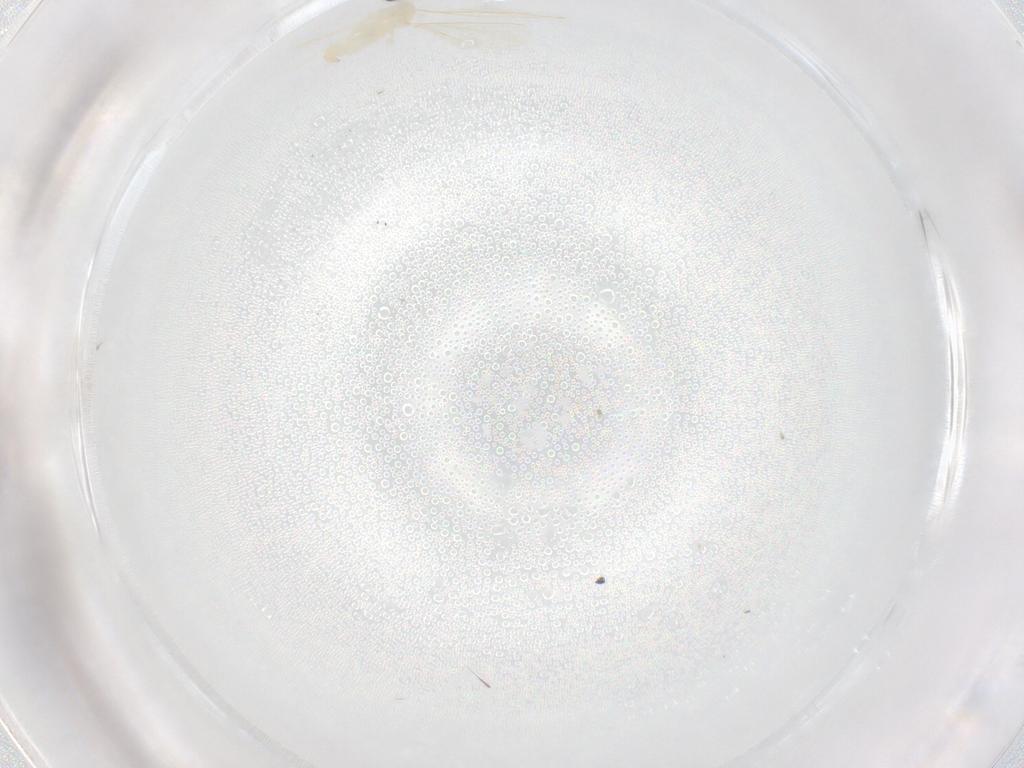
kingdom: Animalia
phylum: Arthropoda
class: Insecta
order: Diptera
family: Cecidomyiidae
